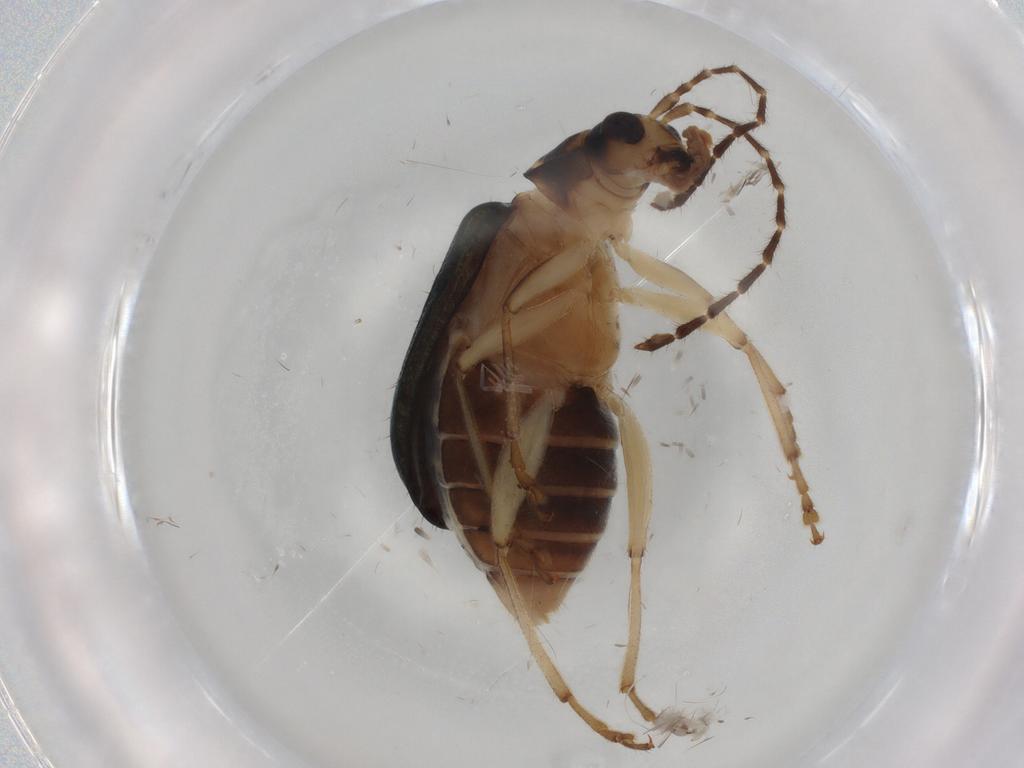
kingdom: Animalia
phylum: Arthropoda
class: Insecta
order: Coleoptera
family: Chrysomelidae
